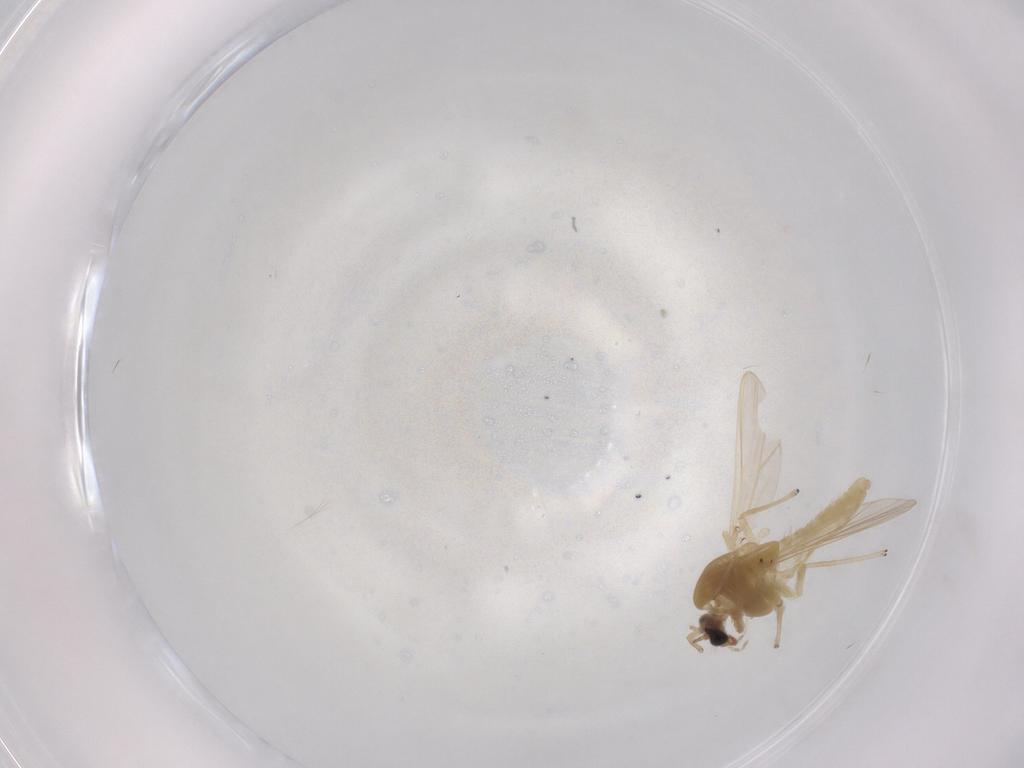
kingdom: Animalia
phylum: Arthropoda
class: Insecta
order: Diptera
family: Chironomidae
